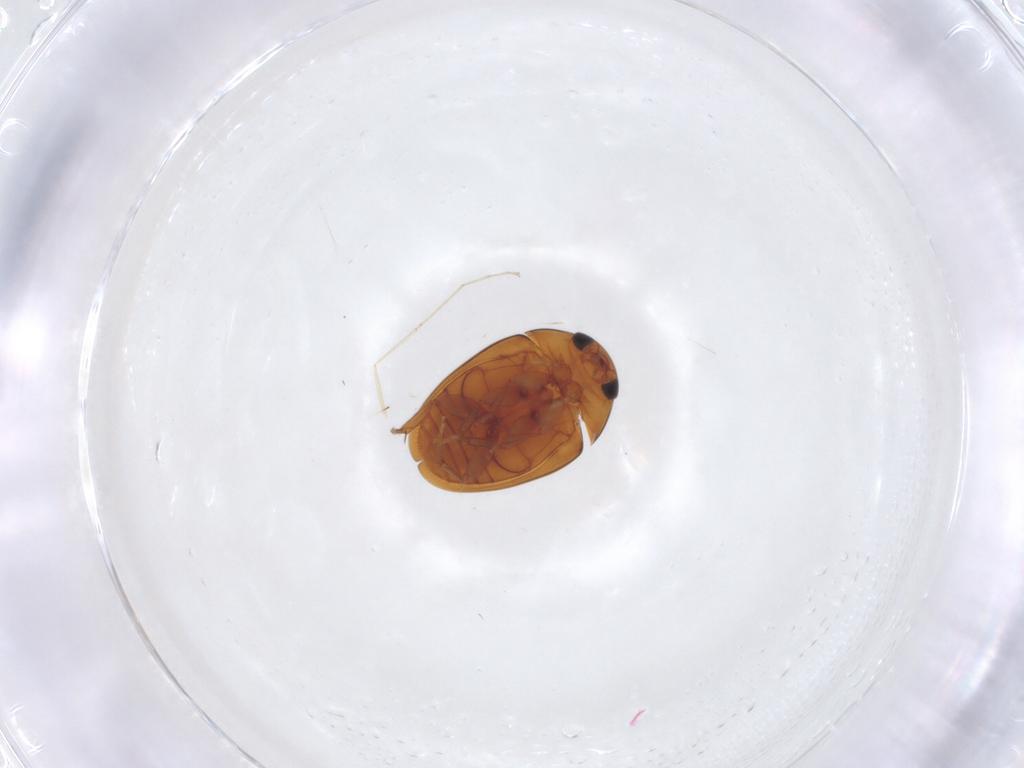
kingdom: Animalia
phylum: Arthropoda
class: Insecta
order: Coleoptera
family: Phalacridae
